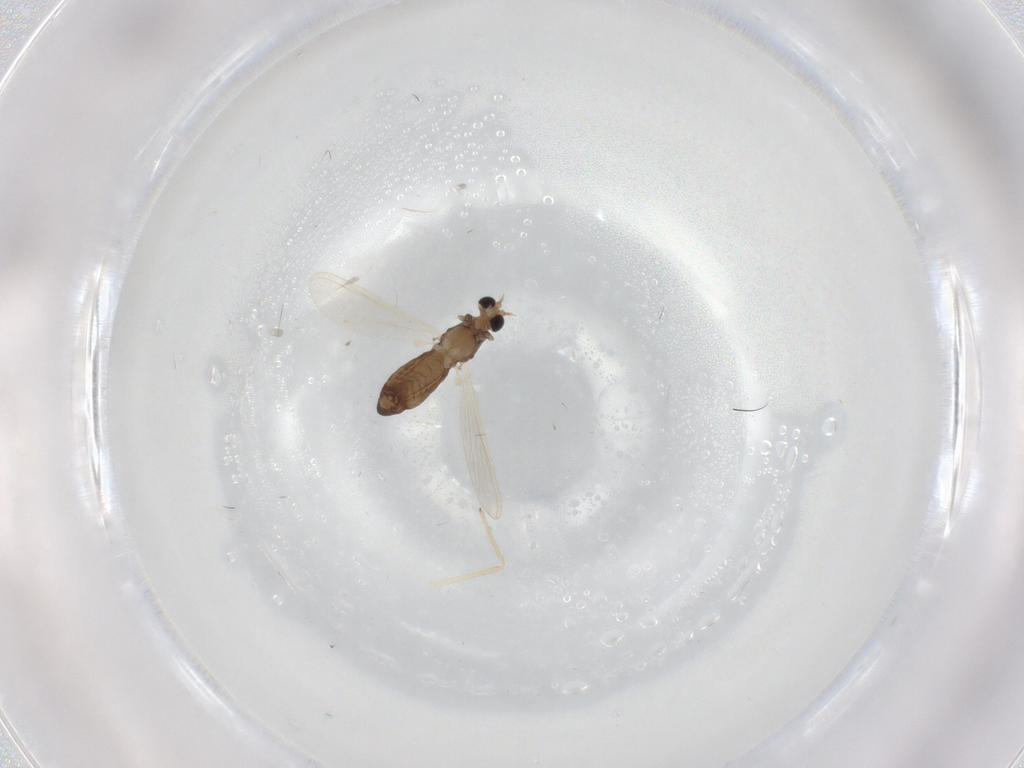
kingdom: Animalia
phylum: Arthropoda
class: Insecta
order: Diptera
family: Chironomidae
